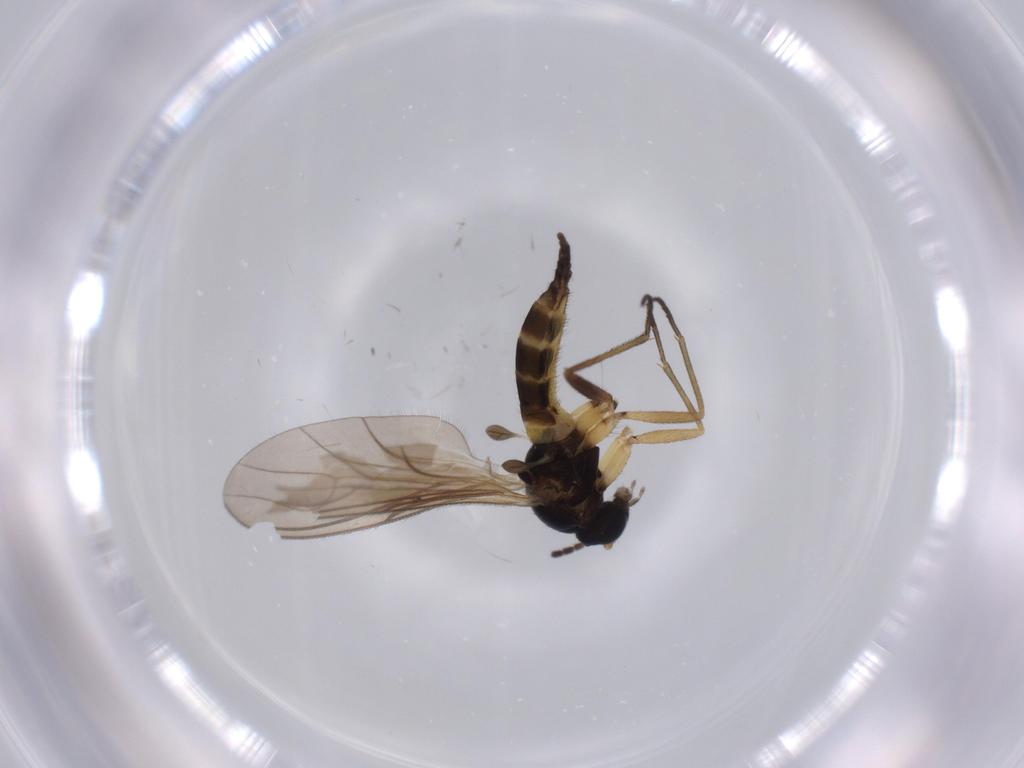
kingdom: Animalia
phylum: Arthropoda
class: Insecta
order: Diptera
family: Sciaridae
